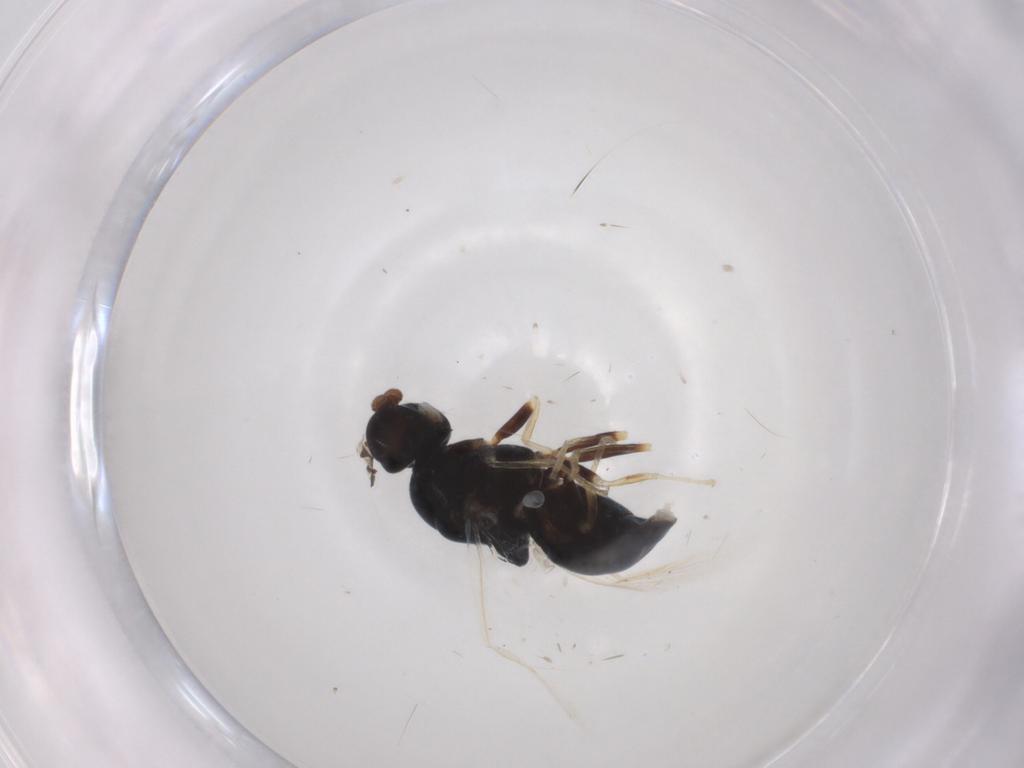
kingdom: Animalia
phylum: Arthropoda
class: Insecta
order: Diptera
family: Stratiomyidae
